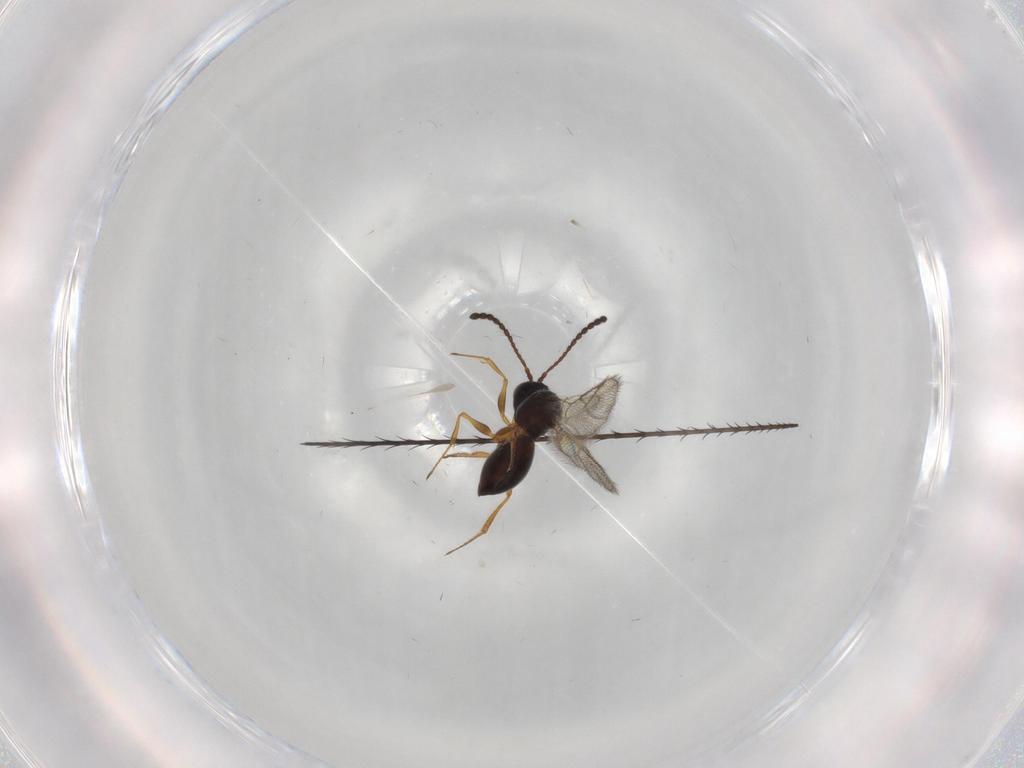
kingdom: Animalia
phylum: Arthropoda
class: Insecta
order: Hymenoptera
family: Figitidae
